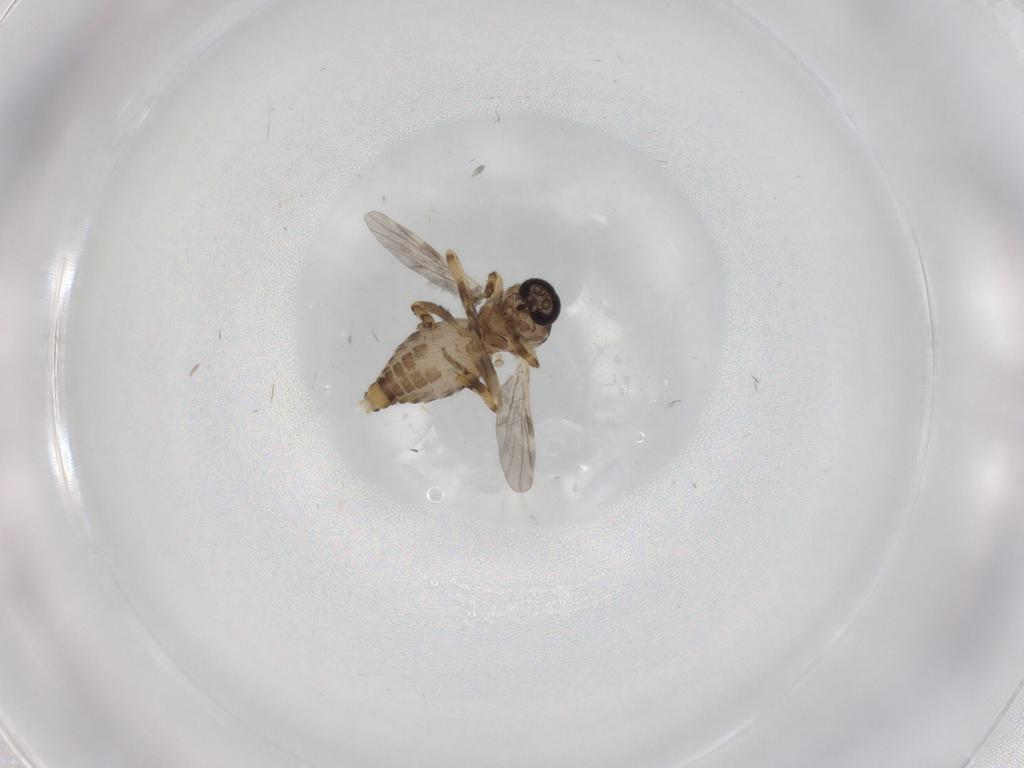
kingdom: Animalia
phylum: Arthropoda
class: Insecta
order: Diptera
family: Ceratopogonidae
